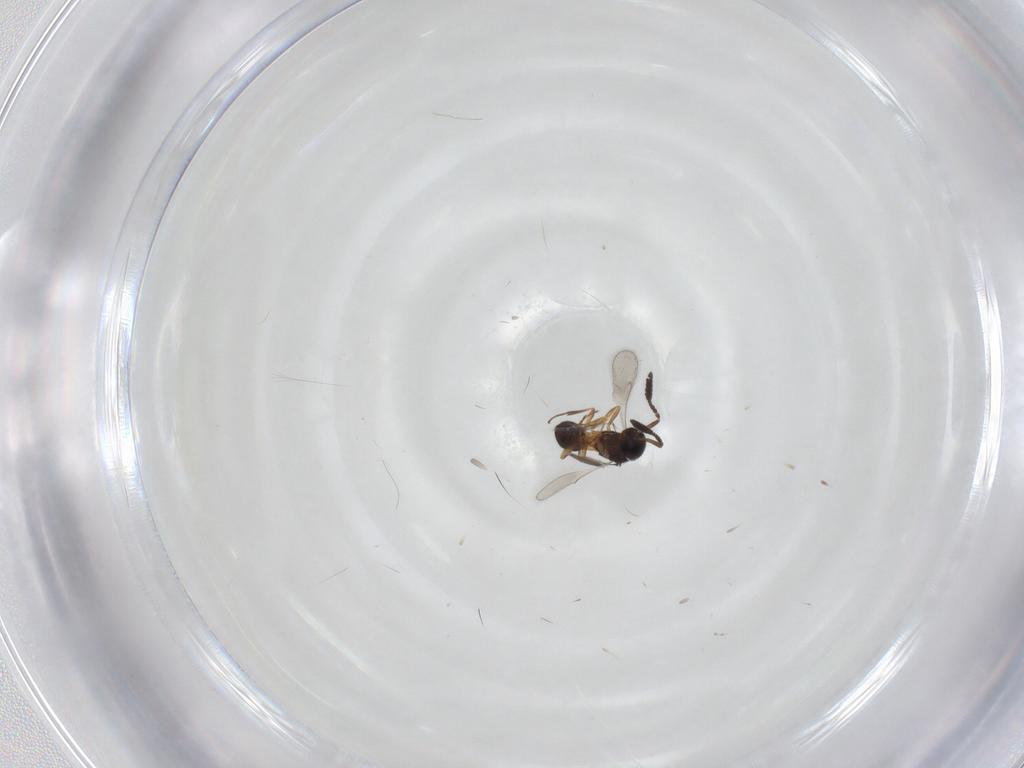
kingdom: Animalia
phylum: Arthropoda
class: Insecta
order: Hymenoptera
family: Scelionidae
